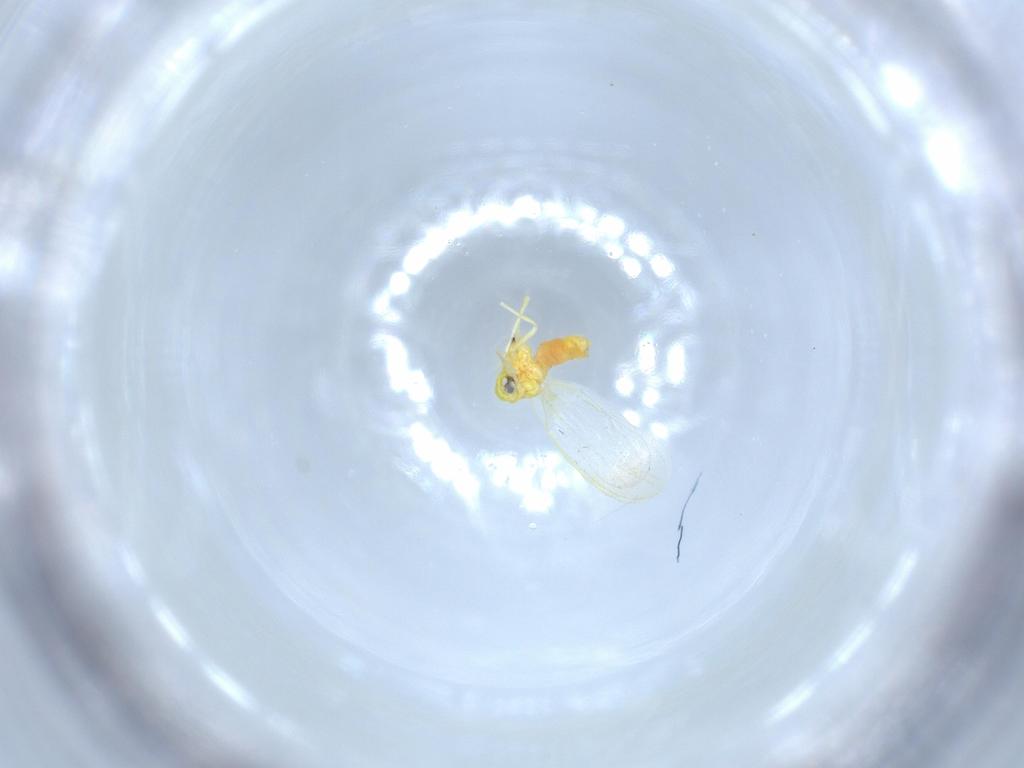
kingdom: Animalia
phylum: Arthropoda
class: Insecta
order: Hemiptera
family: Aleyrodidae
